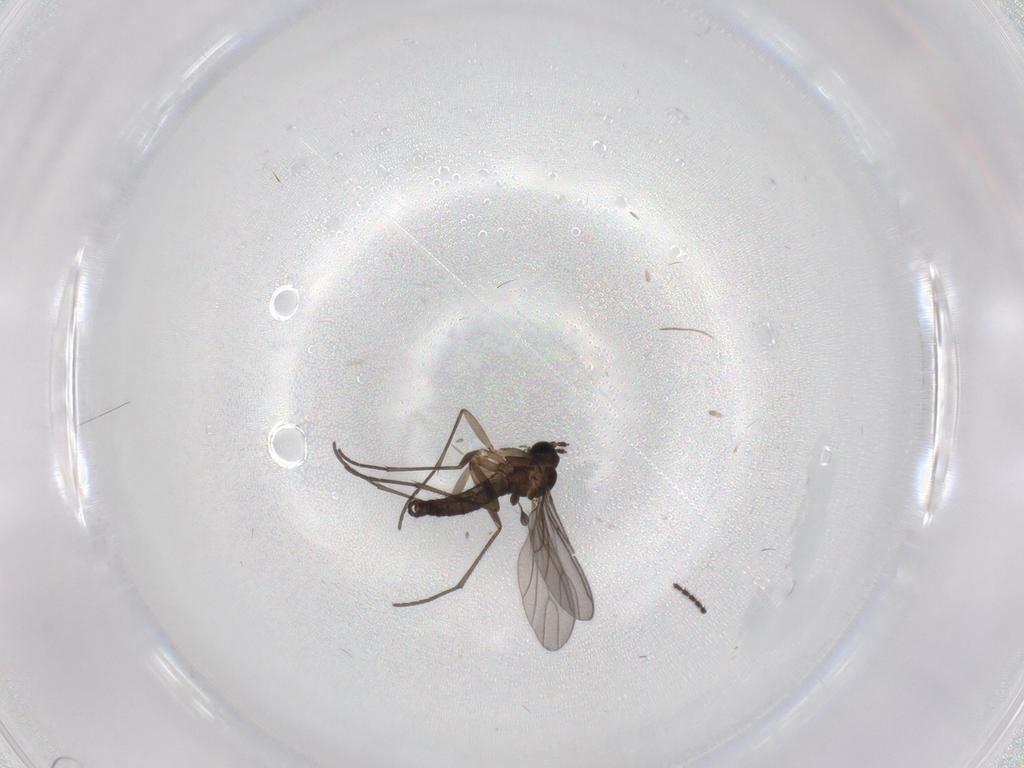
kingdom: Animalia
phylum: Arthropoda
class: Insecta
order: Diptera
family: Sciaridae
